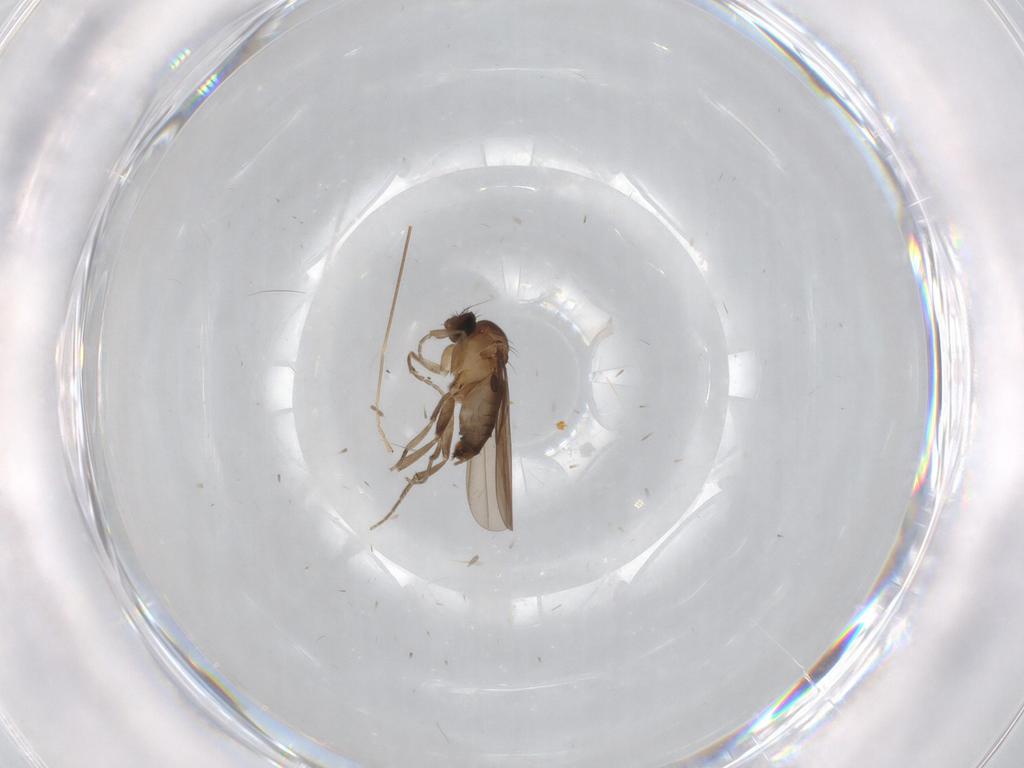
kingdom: Animalia
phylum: Arthropoda
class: Insecta
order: Diptera
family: Phoridae
